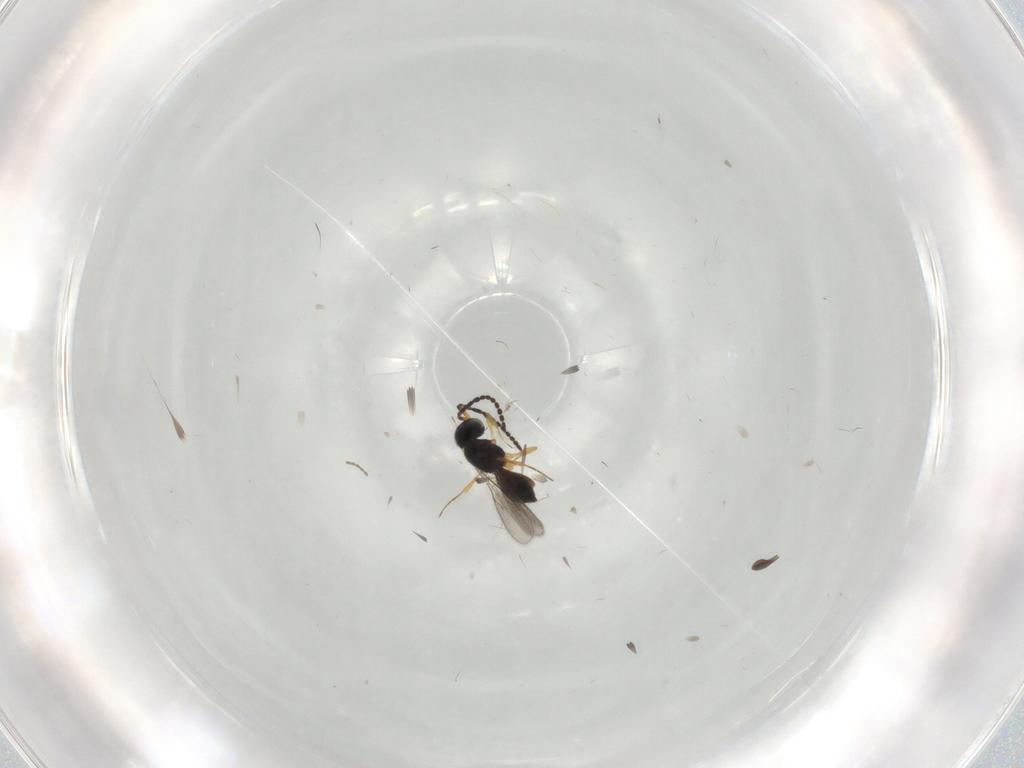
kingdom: Animalia
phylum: Arthropoda
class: Insecta
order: Hymenoptera
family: Scelionidae
